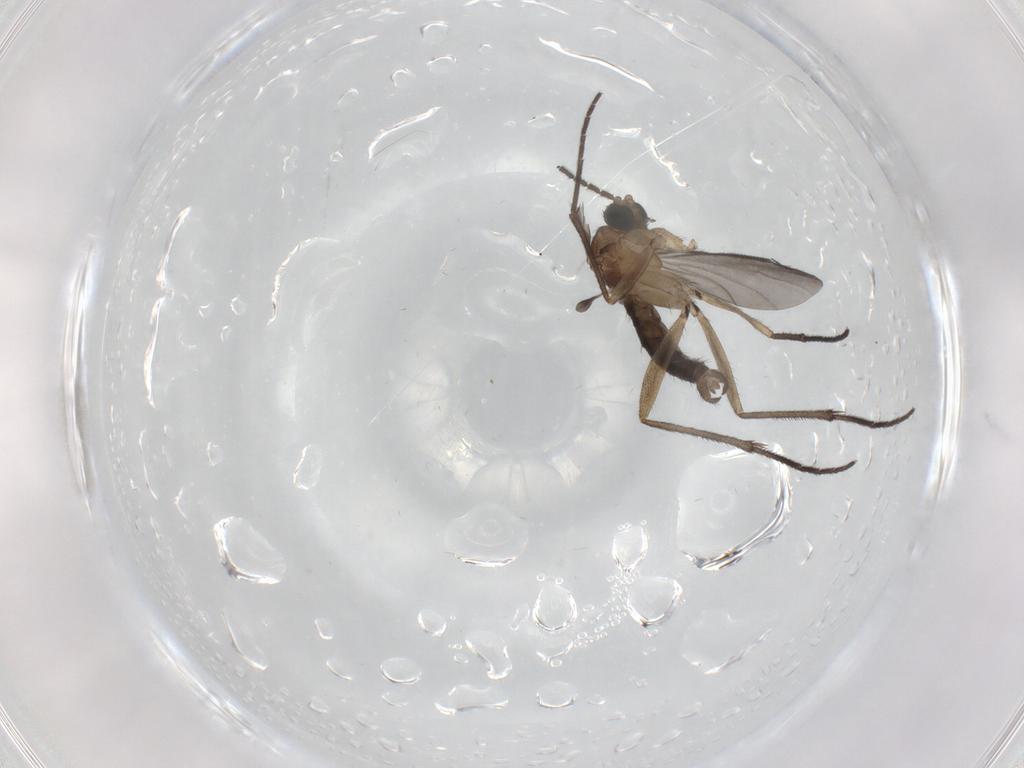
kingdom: Animalia
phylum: Arthropoda
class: Insecta
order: Diptera
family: Sciaridae
